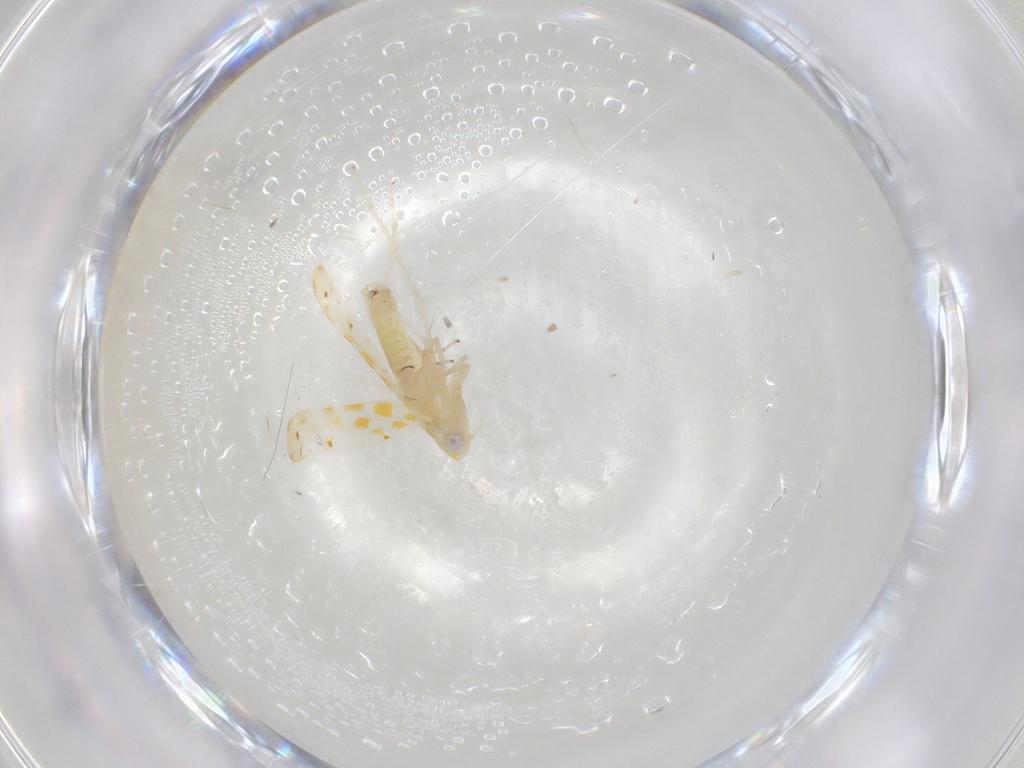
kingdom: Animalia
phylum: Arthropoda
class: Insecta
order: Hemiptera
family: Cicadellidae
